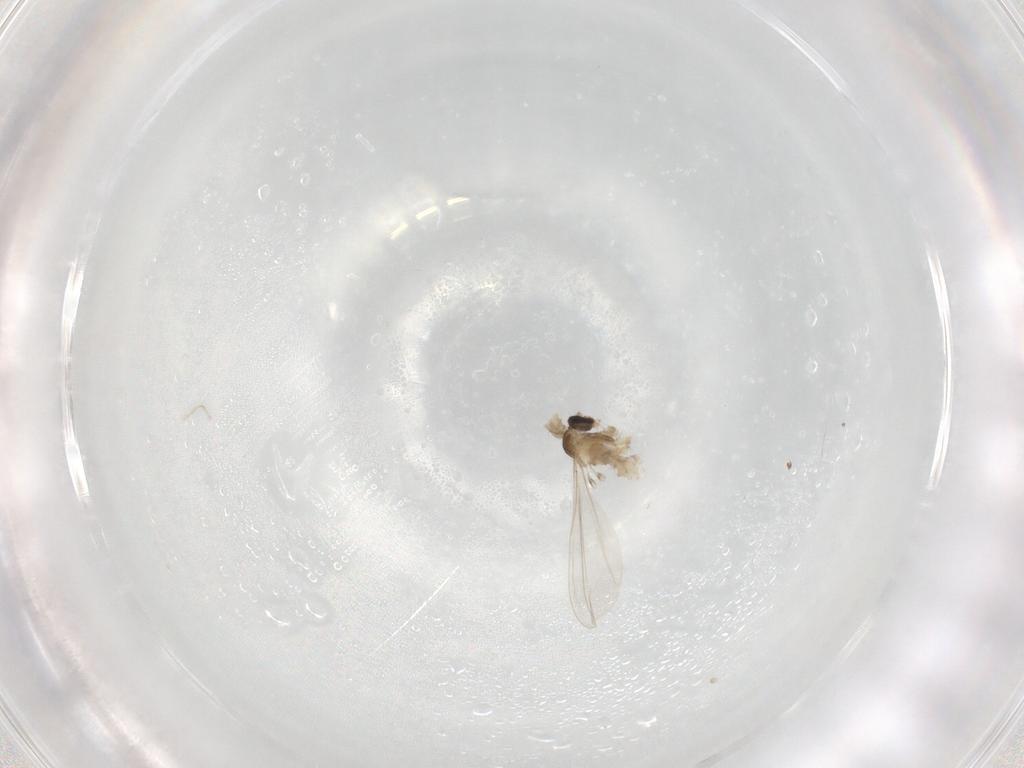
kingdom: Animalia
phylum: Arthropoda
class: Insecta
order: Diptera
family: Cecidomyiidae
